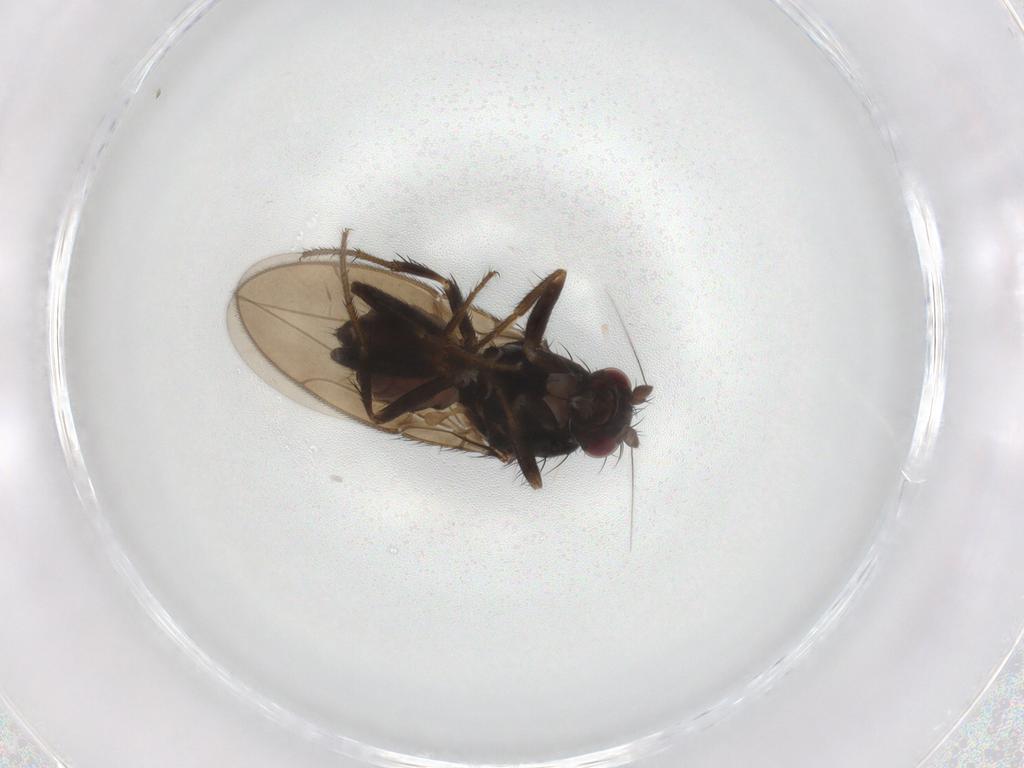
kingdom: Animalia
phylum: Arthropoda
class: Insecta
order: Diptera
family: Sphaeroceridae
